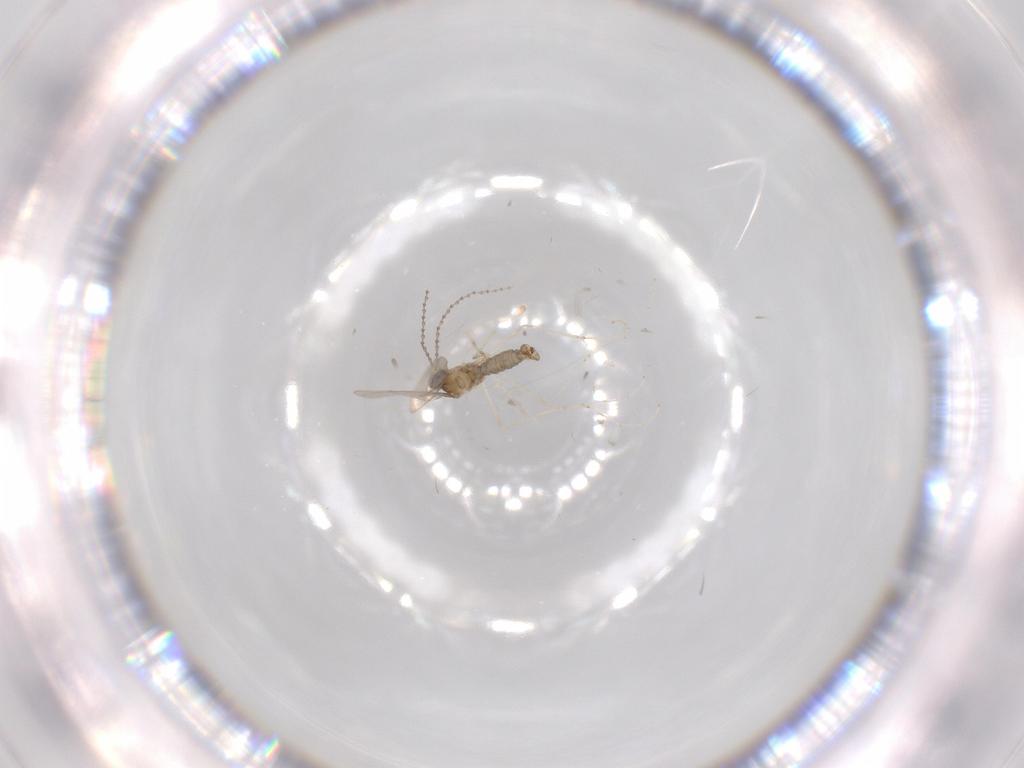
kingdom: Animalia
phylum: Arthropoda
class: Insecta
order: Diptera
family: Cecidomyiidae
